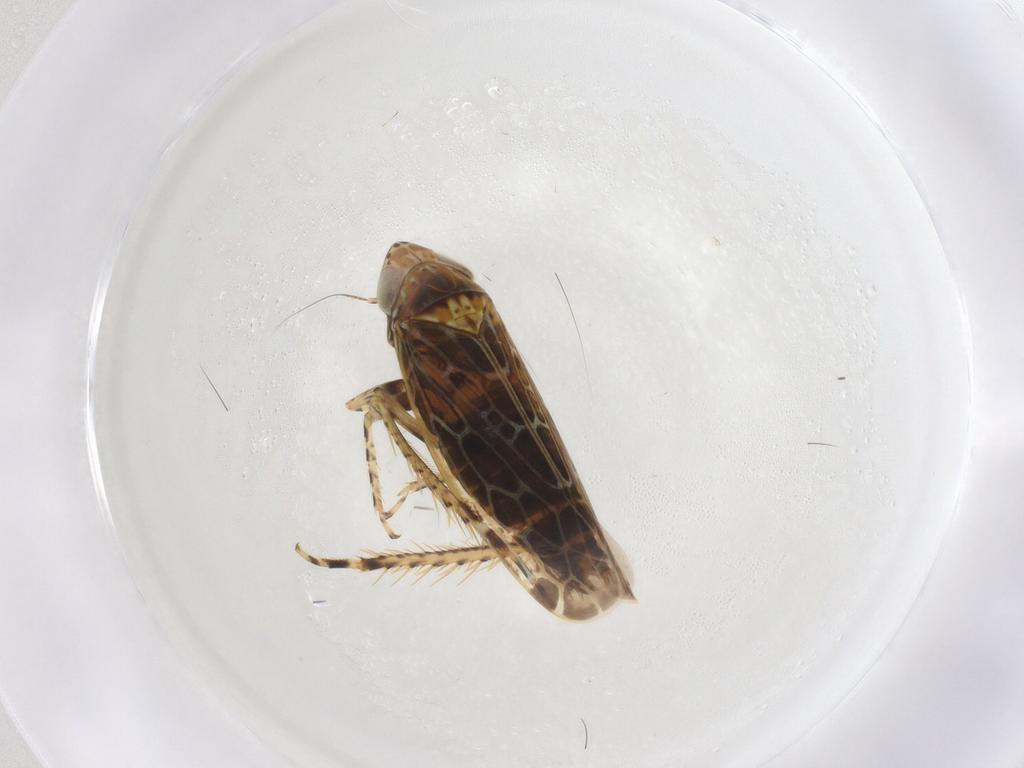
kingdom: Animalia
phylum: Arthropoda
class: Insecta
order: Hemiptera
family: Cicadellidae
